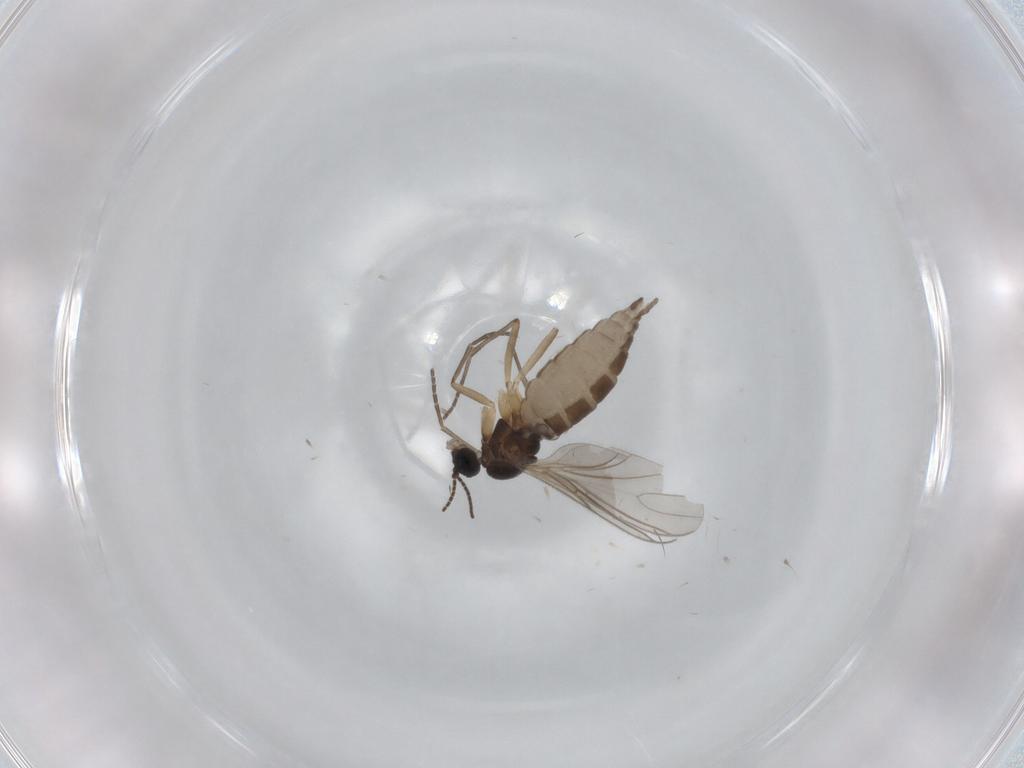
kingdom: Animalia
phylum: Arthropoda
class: Insecta
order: Diptera
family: Sciaridae
